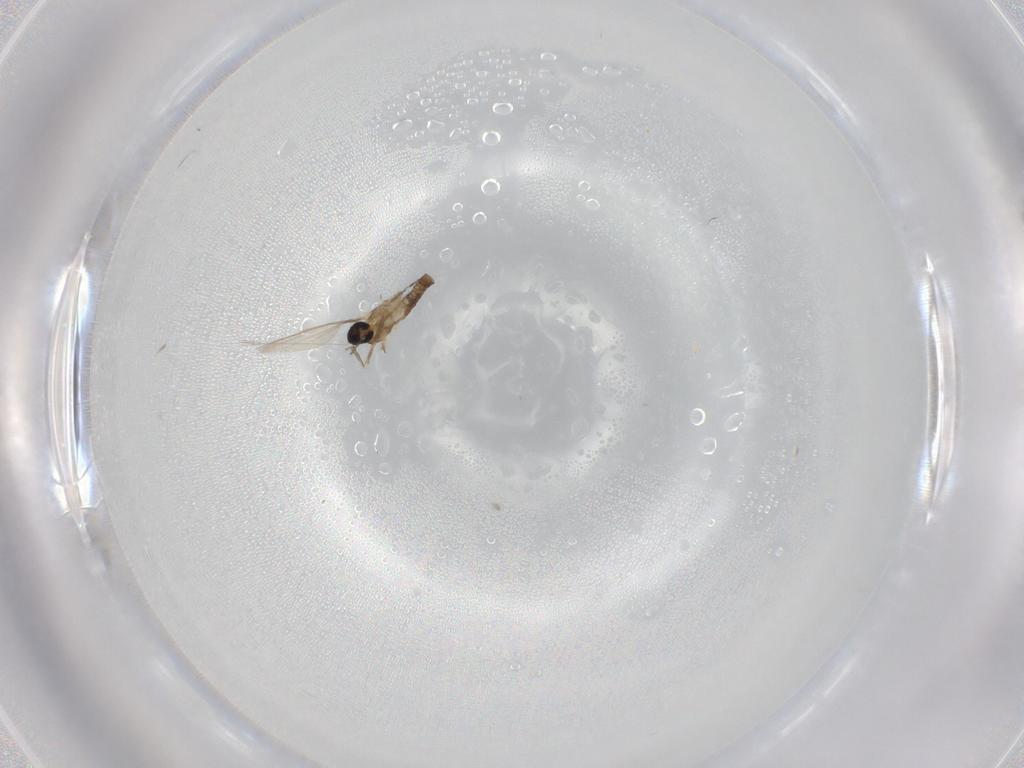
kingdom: Animalia
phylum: Arthropoda
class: Insecta
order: Diptera
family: Cecidomyiidae
